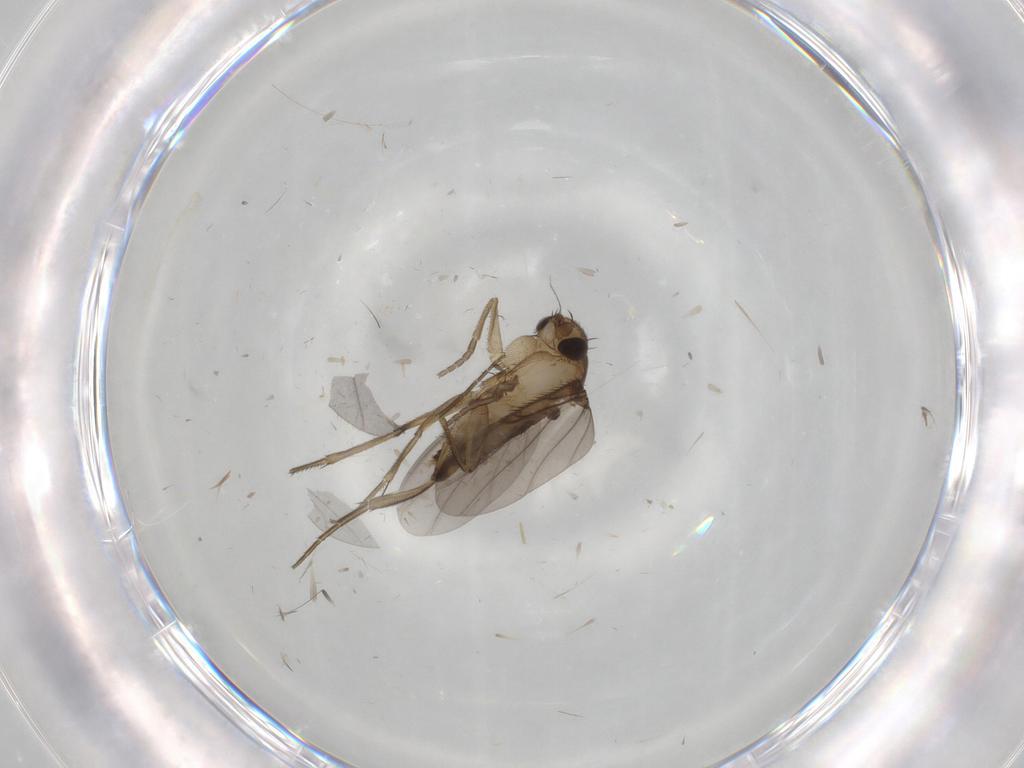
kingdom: Animalia
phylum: Arthropoda
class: Insecta
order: Diptera
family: Phoridae
